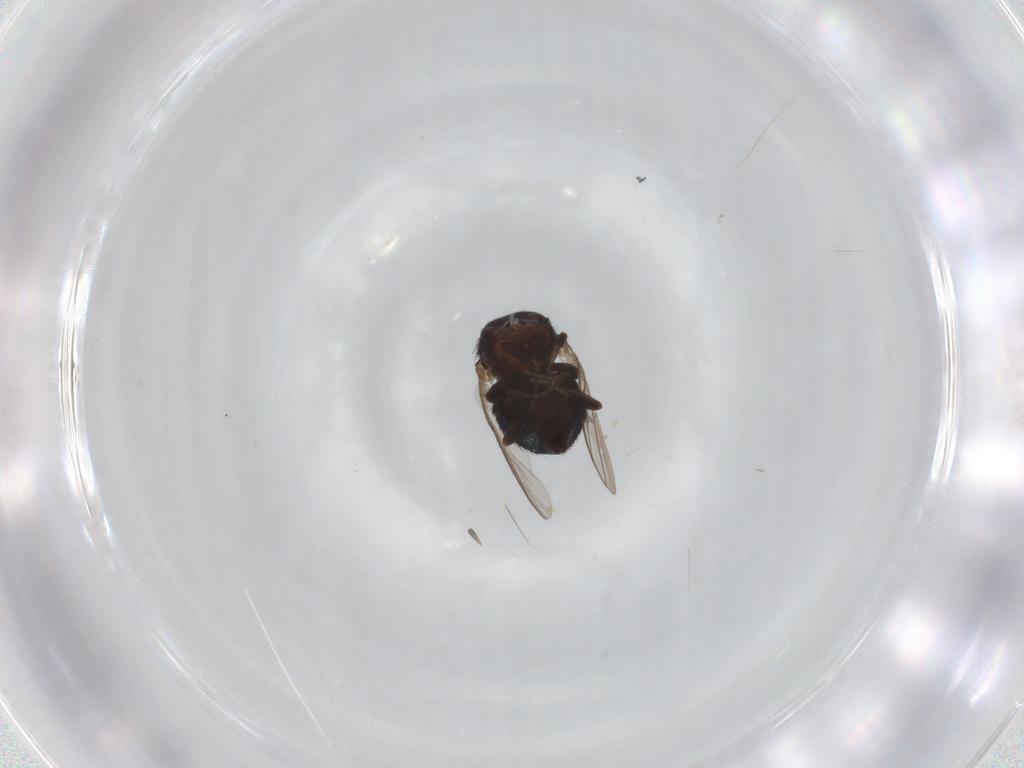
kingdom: Animalia
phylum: Arthropoda
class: Insecta
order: Diptera
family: Cryptochetidae
